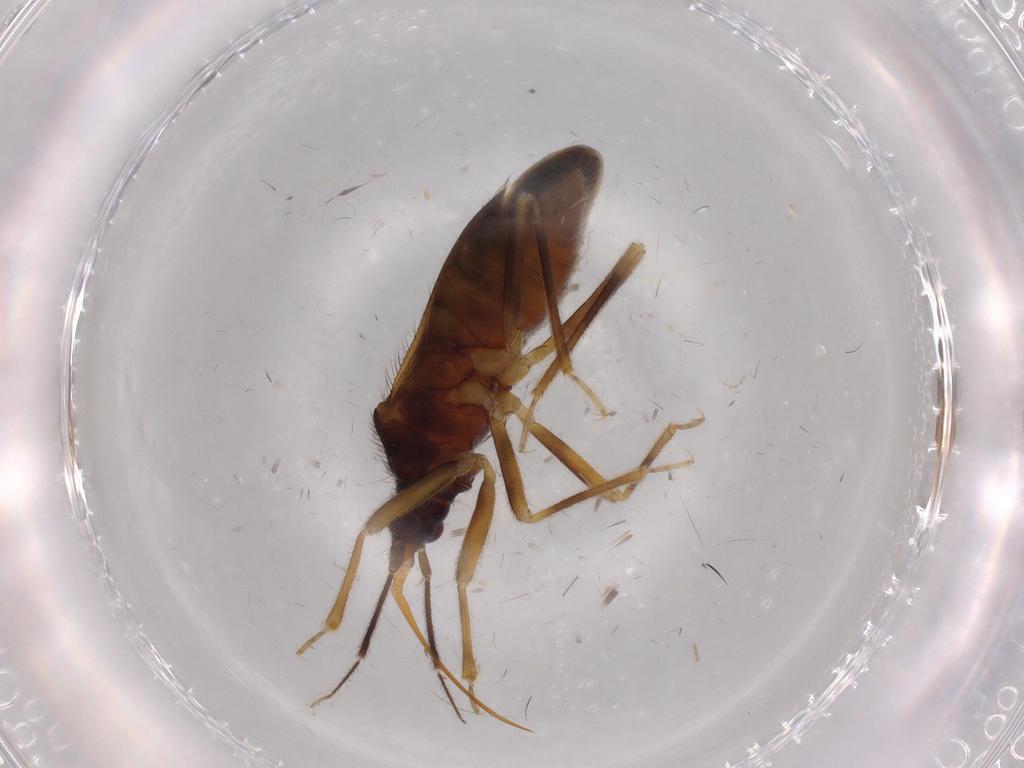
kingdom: Animalia
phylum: Arthropoda
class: Insecta
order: Hemiptera
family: Anthocoridae
